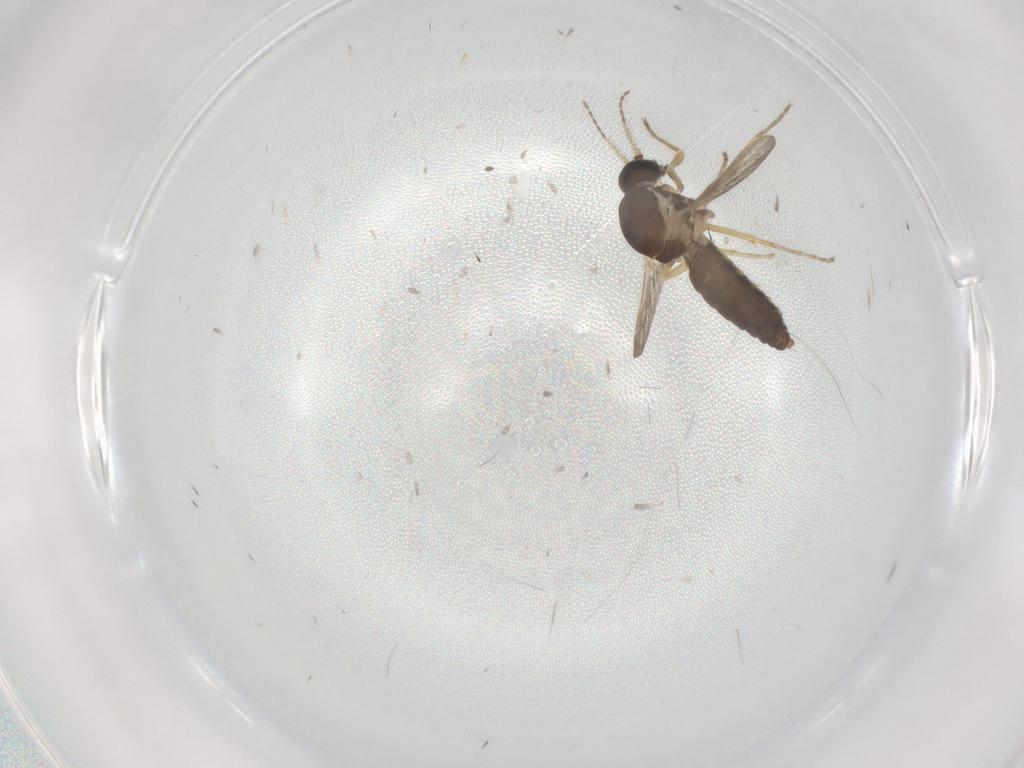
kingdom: Animalia
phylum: Arthropoda
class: Insecta
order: Diptera
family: Ceratopogonidae
